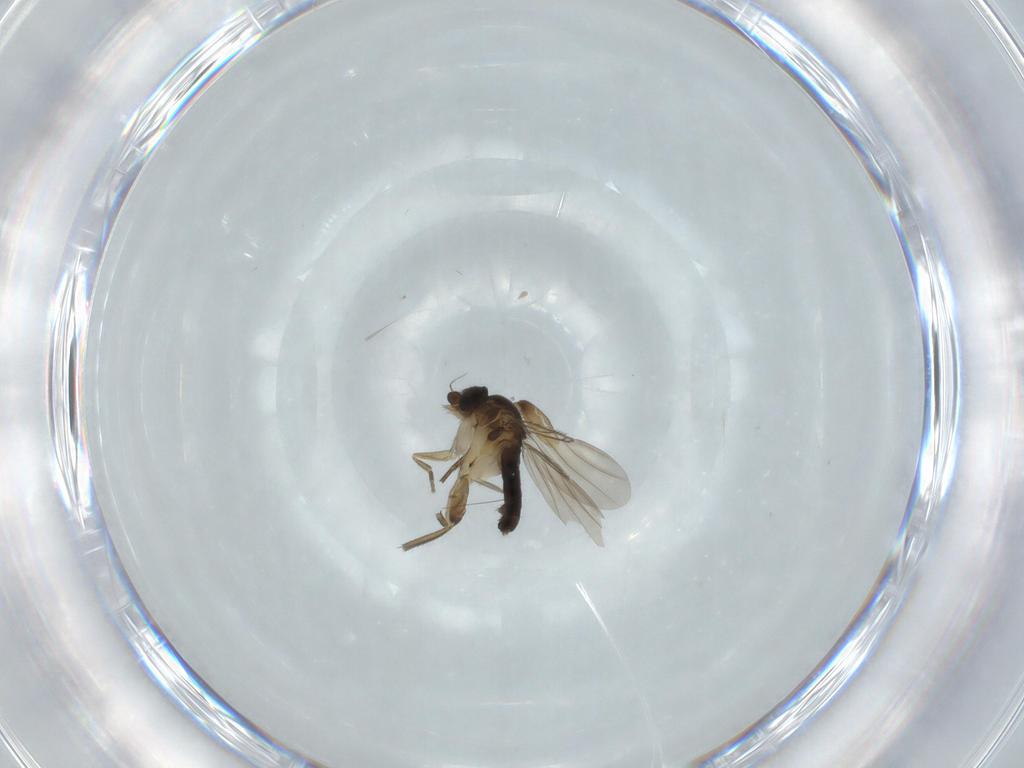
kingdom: Animalia
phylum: Arthropoda
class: Insecta
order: Diptera
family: Phoridae
